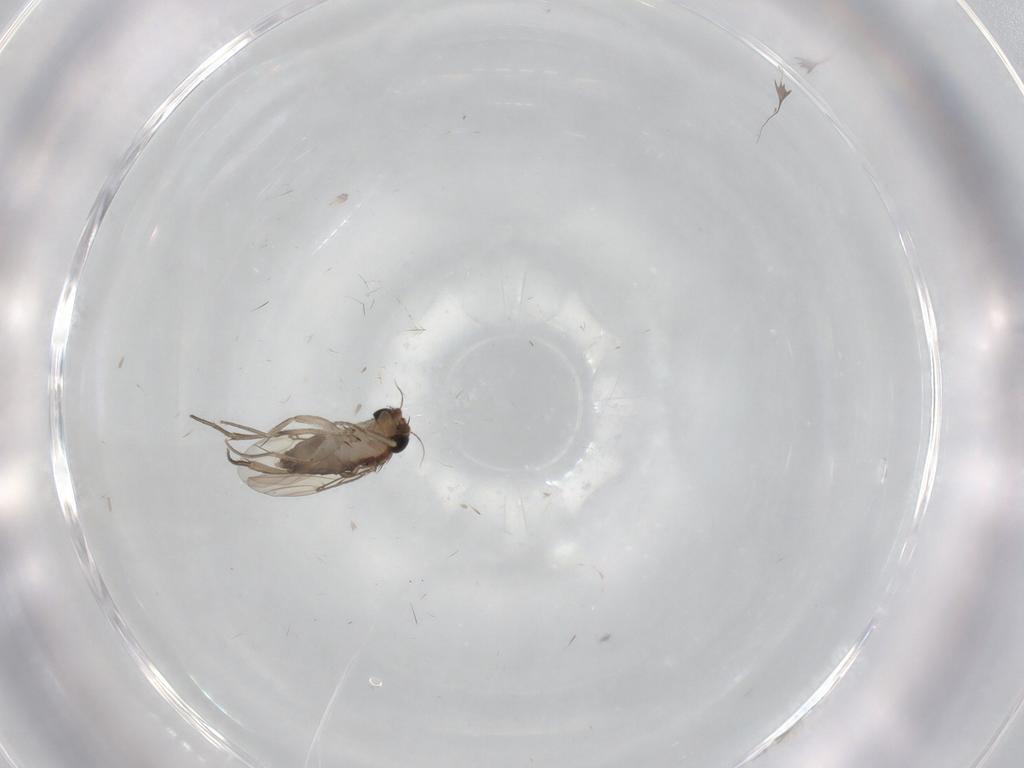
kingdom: Animalia
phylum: Arthropoda
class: Insecta
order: Diptera
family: Phoridae
